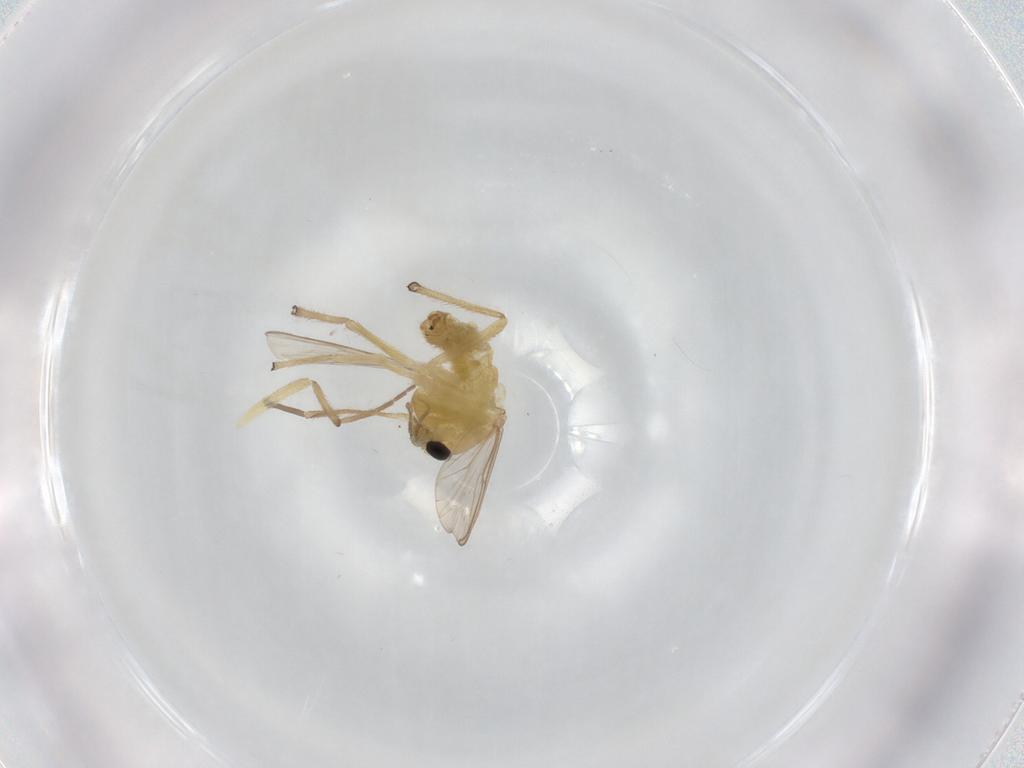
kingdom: Animalia
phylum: Arthropoda
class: Insecta
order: Diptera
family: Chironomidae
